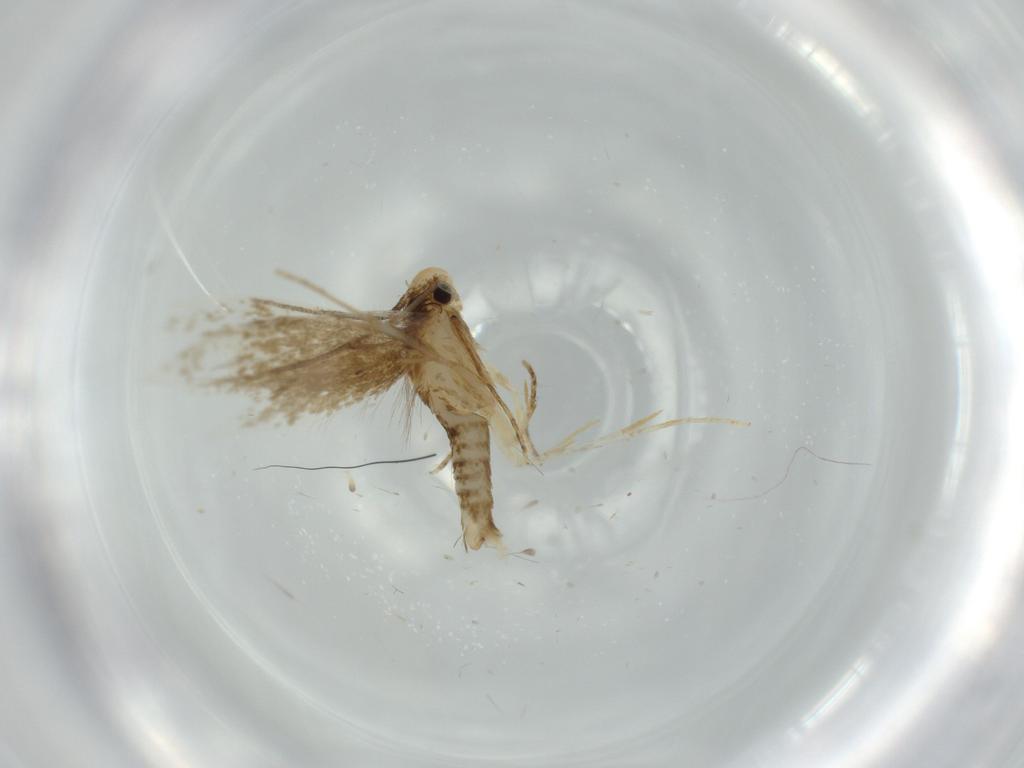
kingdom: Animalia
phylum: Arthropoda
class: Insecta
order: Lepidoptera
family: Tineidae
